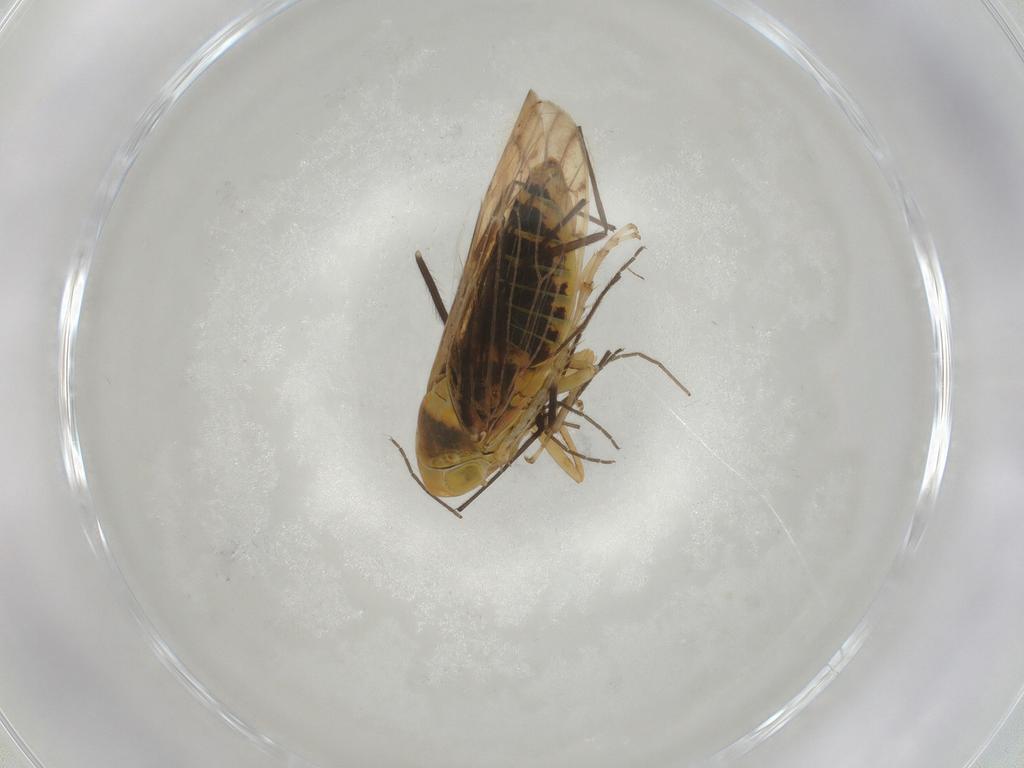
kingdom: Animalia
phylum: Arthropoda
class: Insecta
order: Hemiptera
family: Cicadellidae
